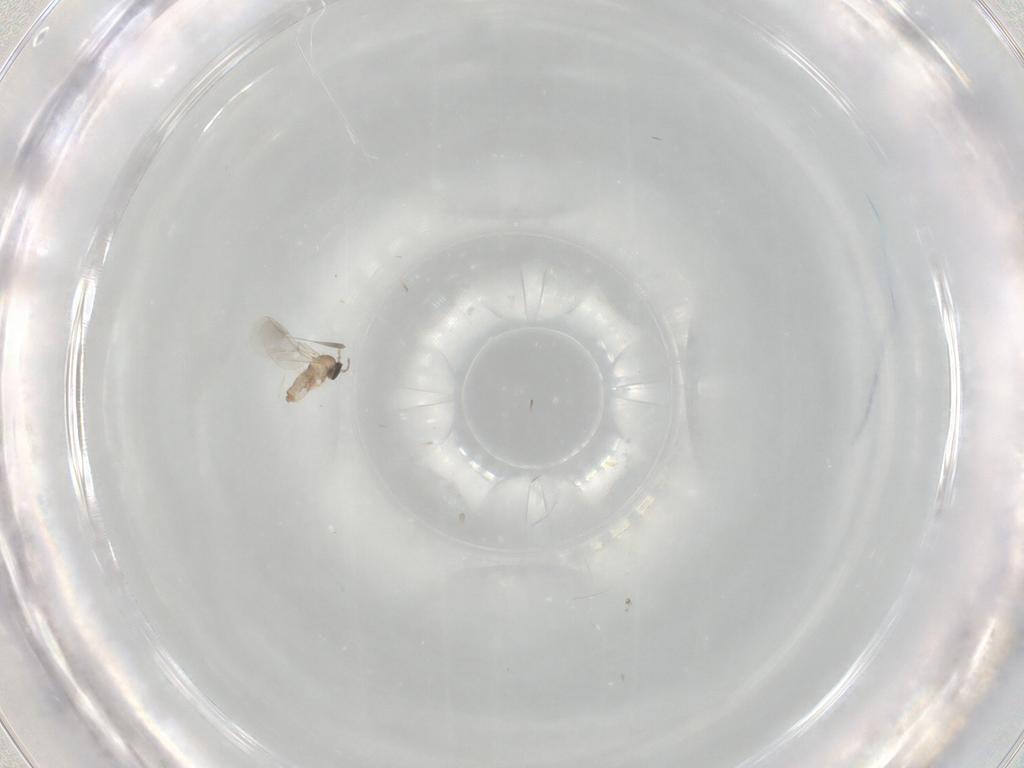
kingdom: Animalia
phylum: Arthropoda
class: Insecta
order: Diptera
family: Cecidomyiidae
